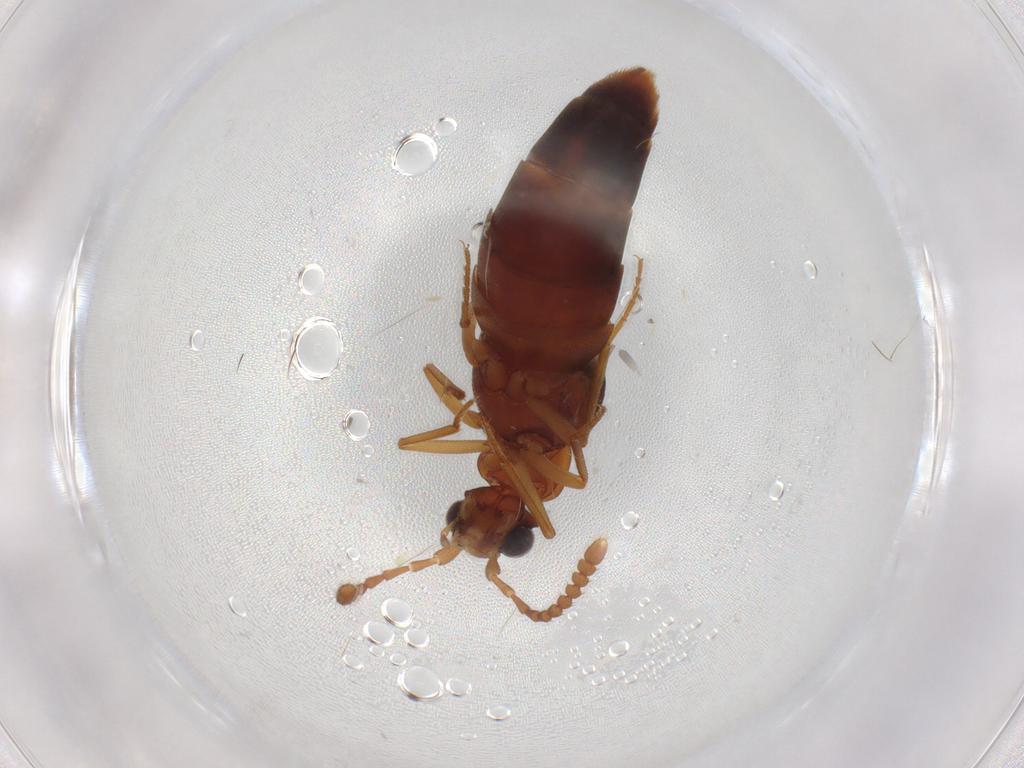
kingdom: Animalia
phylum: Arthropoda
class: Insecta
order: Coleoptera
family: Staphylinidae
